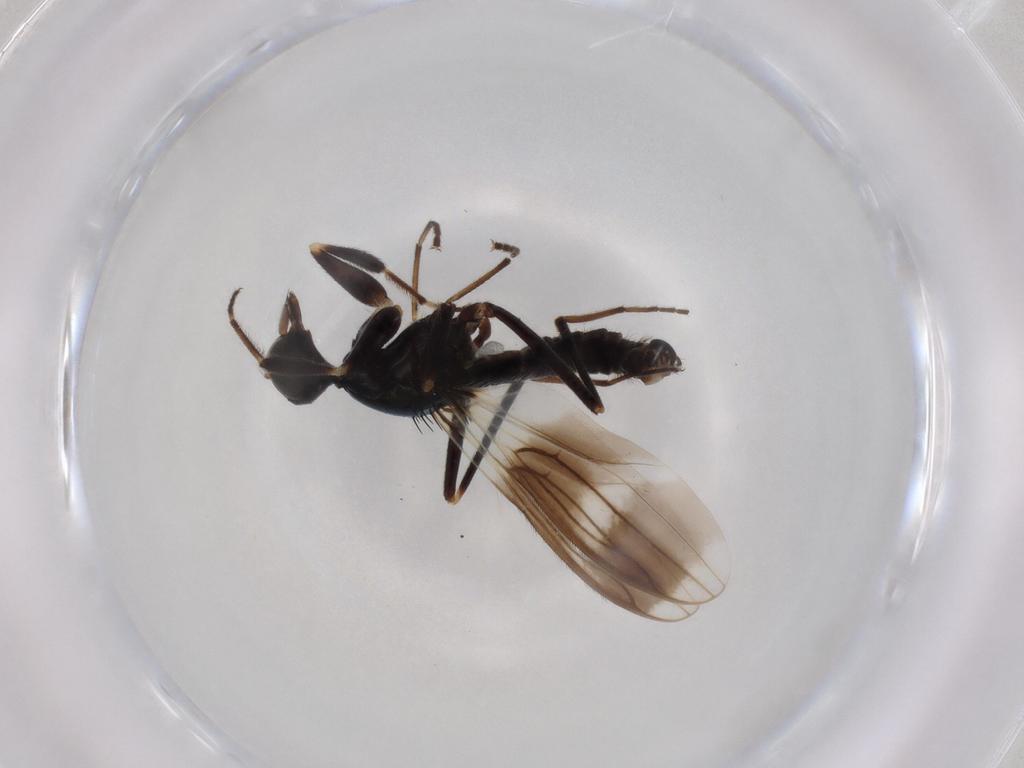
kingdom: Animalia
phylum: Arthropoda
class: Insecta
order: Diptera
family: Hybotidae
